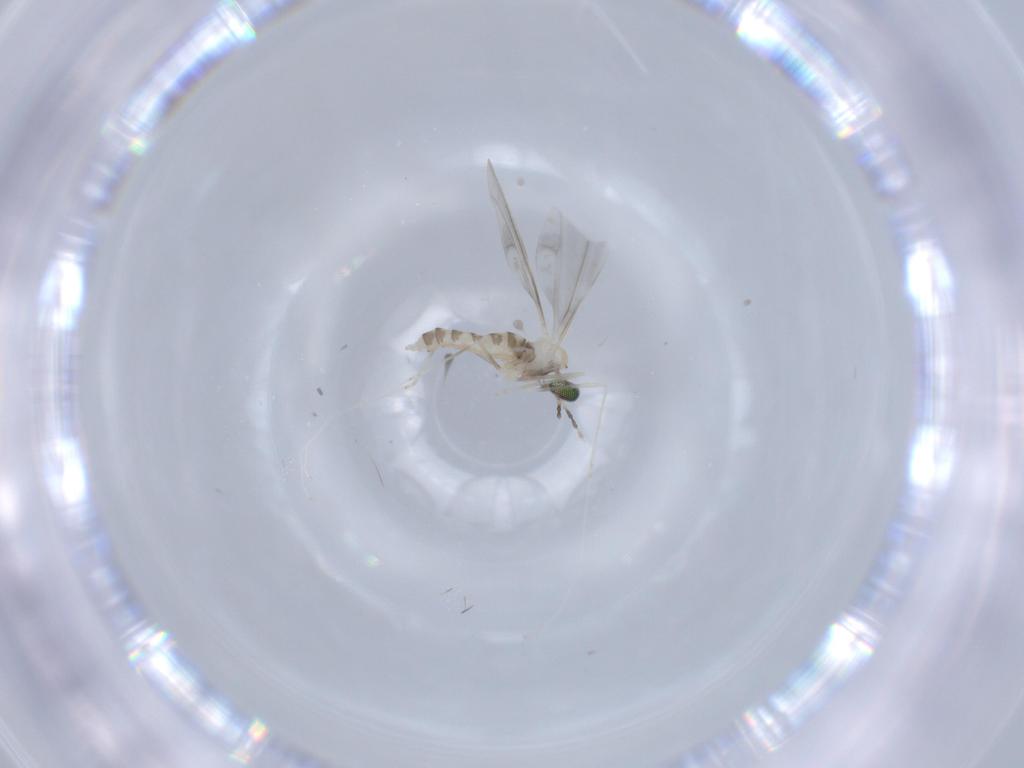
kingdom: Animalia
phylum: Arthropoda
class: Insecta
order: Diptera
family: Cecidomyiidae
